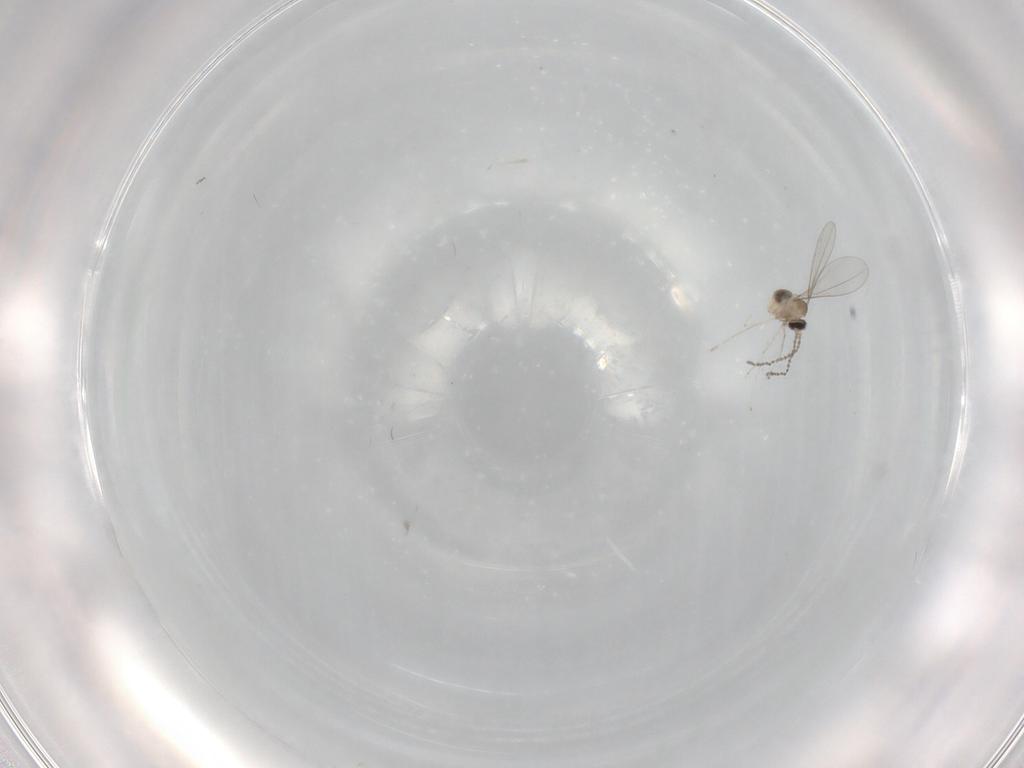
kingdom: Animalia
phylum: Arthropoda
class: Insecta
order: Diptera
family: Cecidomyiidae
